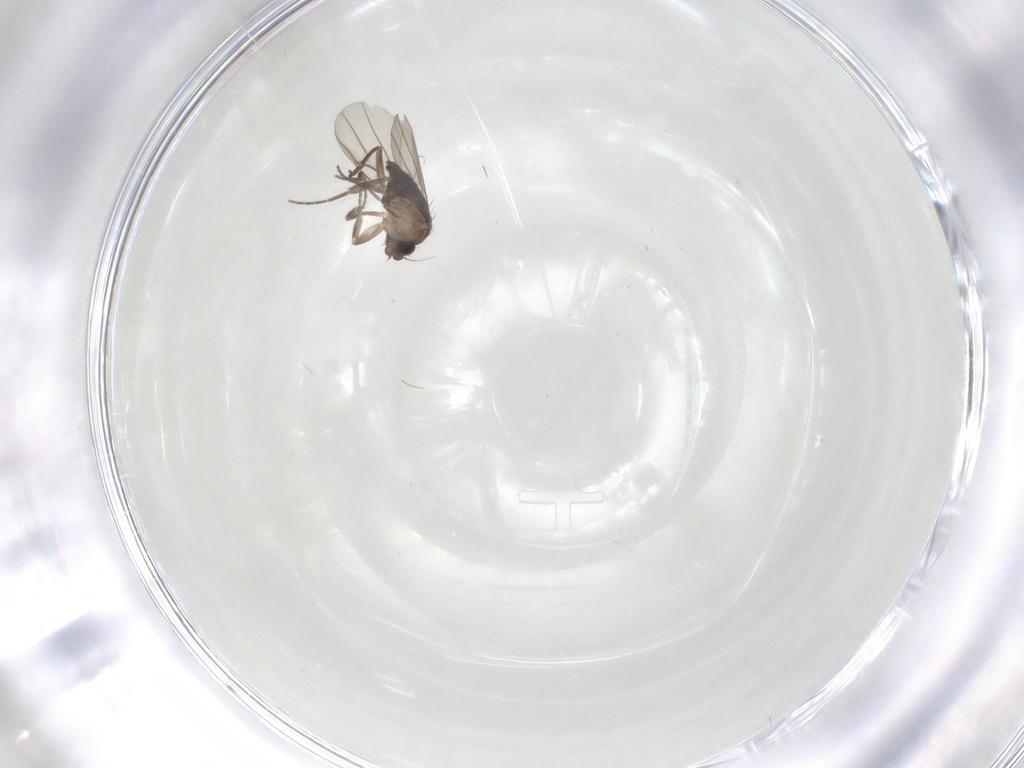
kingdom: Animalia
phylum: Arthropoda
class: Insecta
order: Diptera
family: Chironomidae
